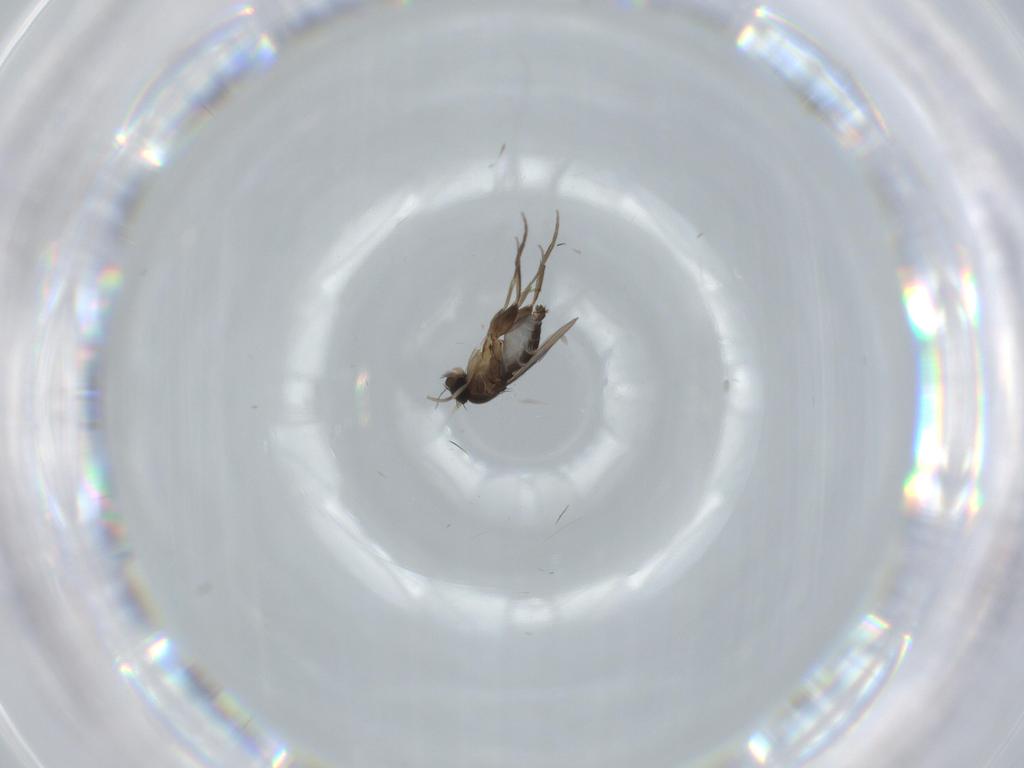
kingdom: Animalia
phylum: Arthropoda
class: Insecta
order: Diptera
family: Phoridae
